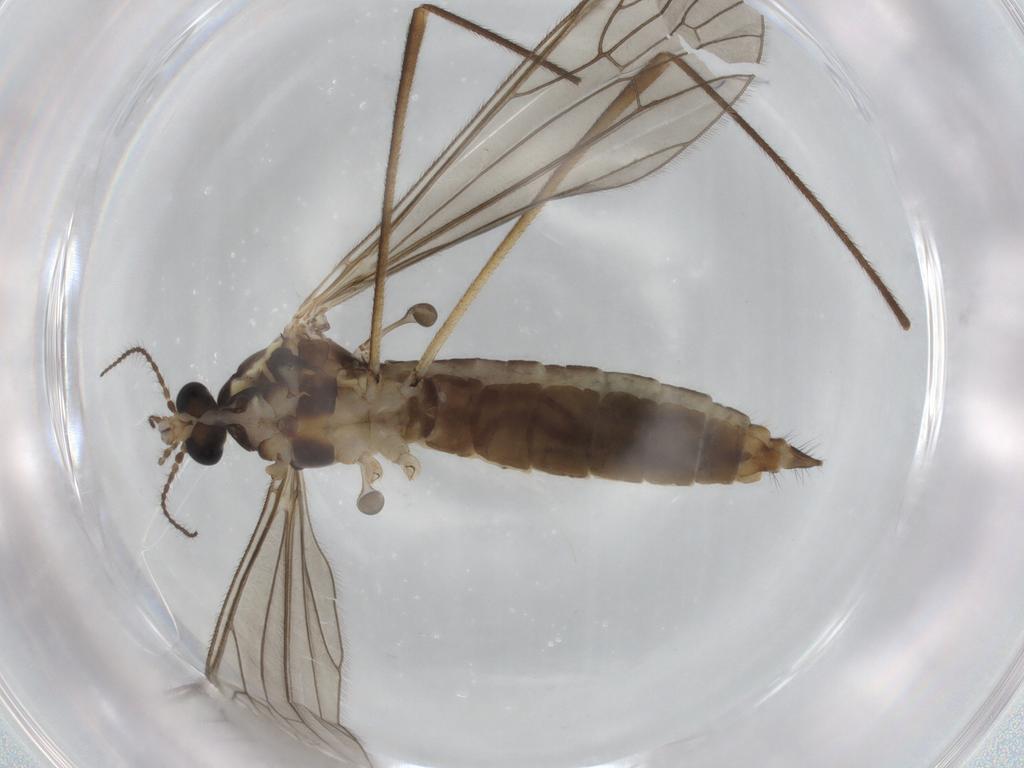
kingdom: Animalia
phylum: Arthropoda
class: Insecta
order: Diptera
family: Limoniidae
